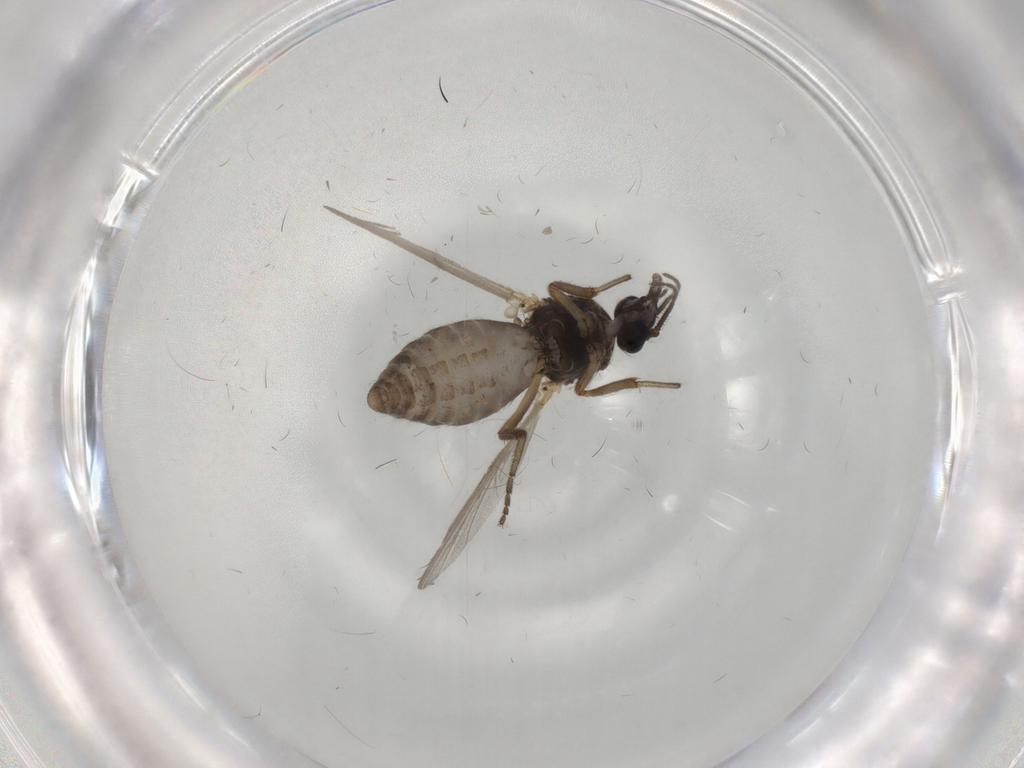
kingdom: Animalia
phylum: Arthropoda
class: Insecta
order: Diptera
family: Ceratopogonidae
